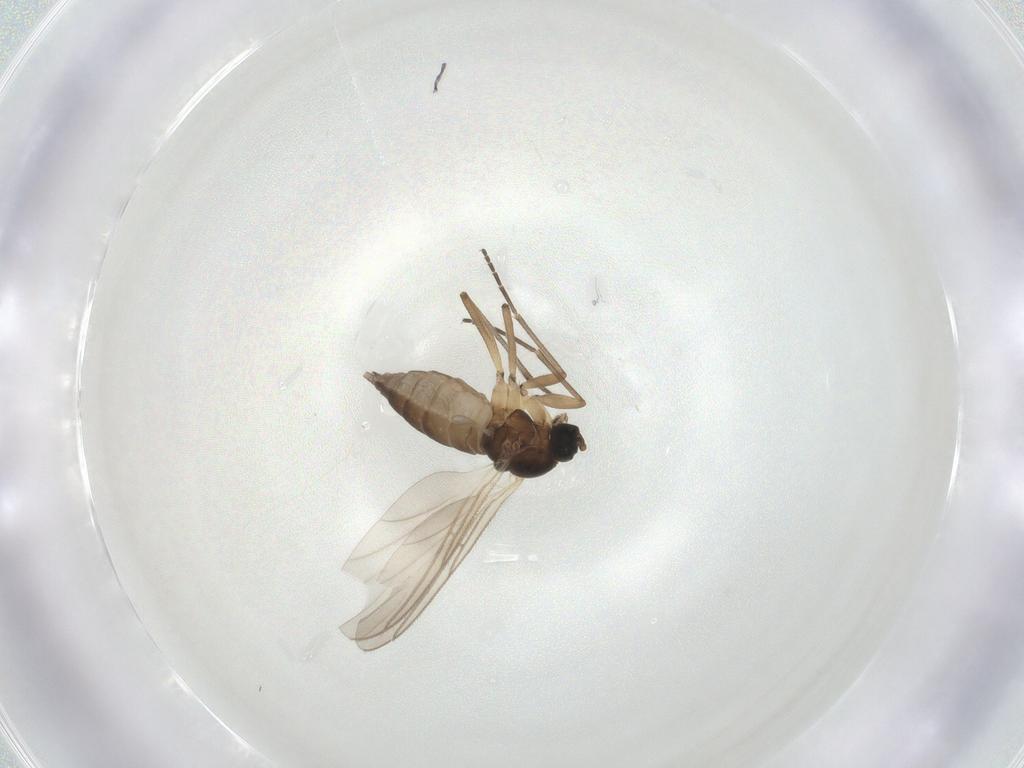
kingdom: Animalia
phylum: Arthropoda
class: Insecta
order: Diptera
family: Sciaridae
